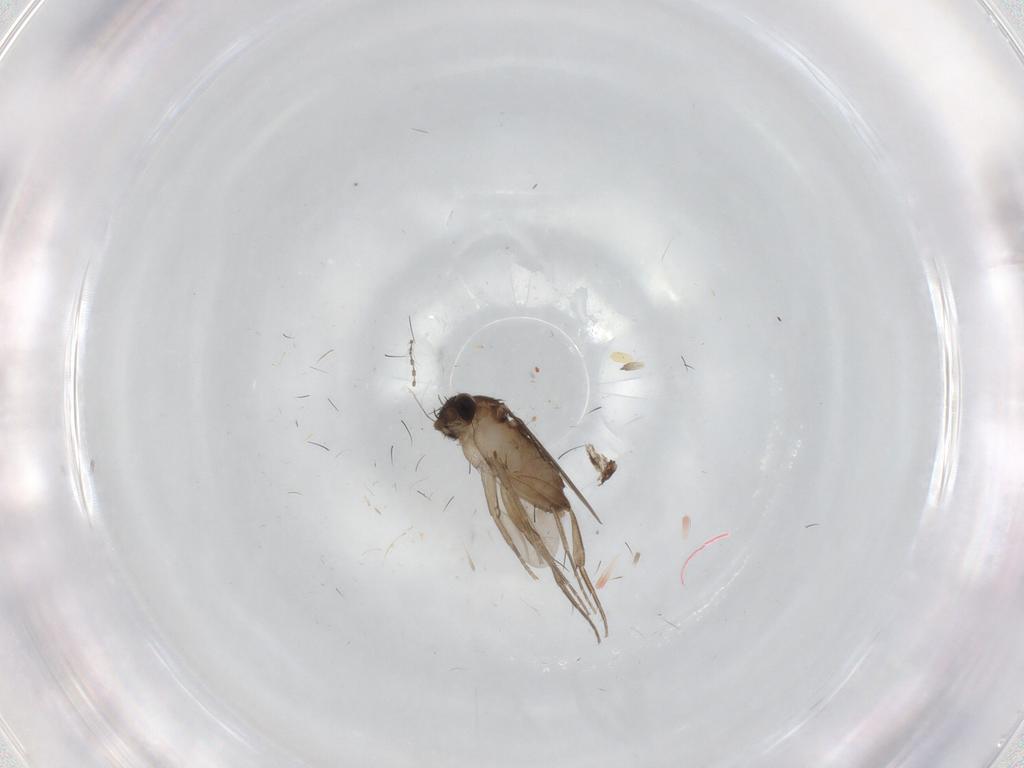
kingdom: Animalia
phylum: Arthropoda
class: Insecta
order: Diptera
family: Phoridae
